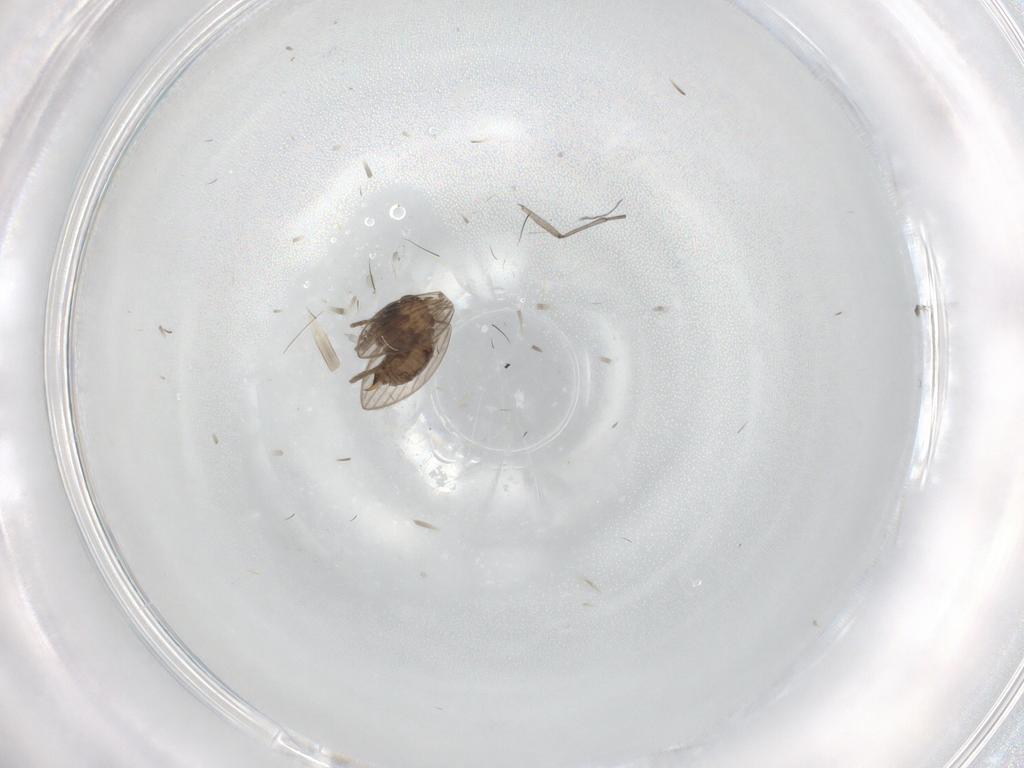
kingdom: Animalia
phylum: Arthropoda
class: Insecta
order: Diptera
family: Psychodidae
